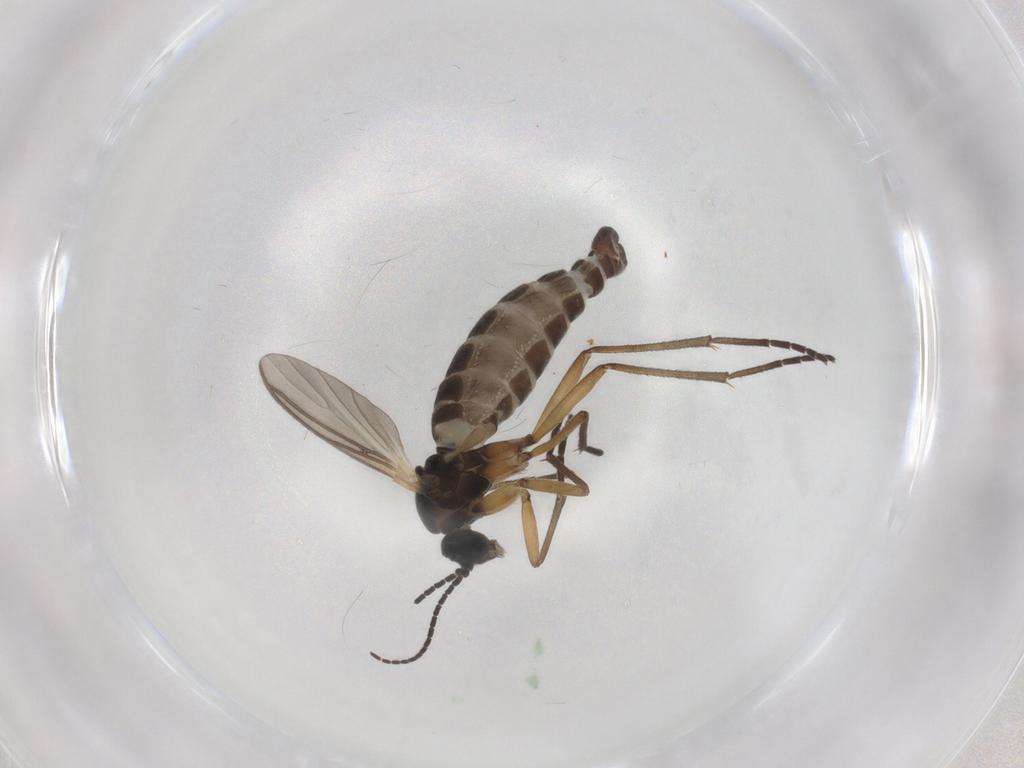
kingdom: Animalia
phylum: Arthropoda
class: Insecta
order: Diptera
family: Sciaridae
